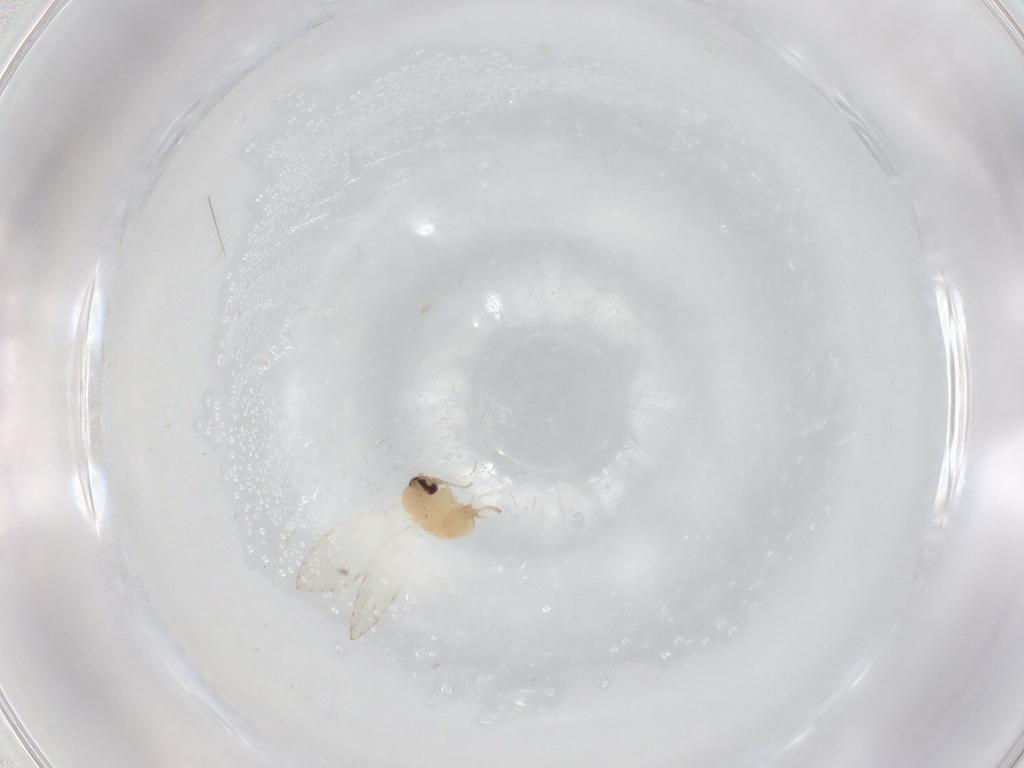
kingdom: Animalia
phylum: Arthropoda
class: Insecta
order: Diptera
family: Psychodidae
